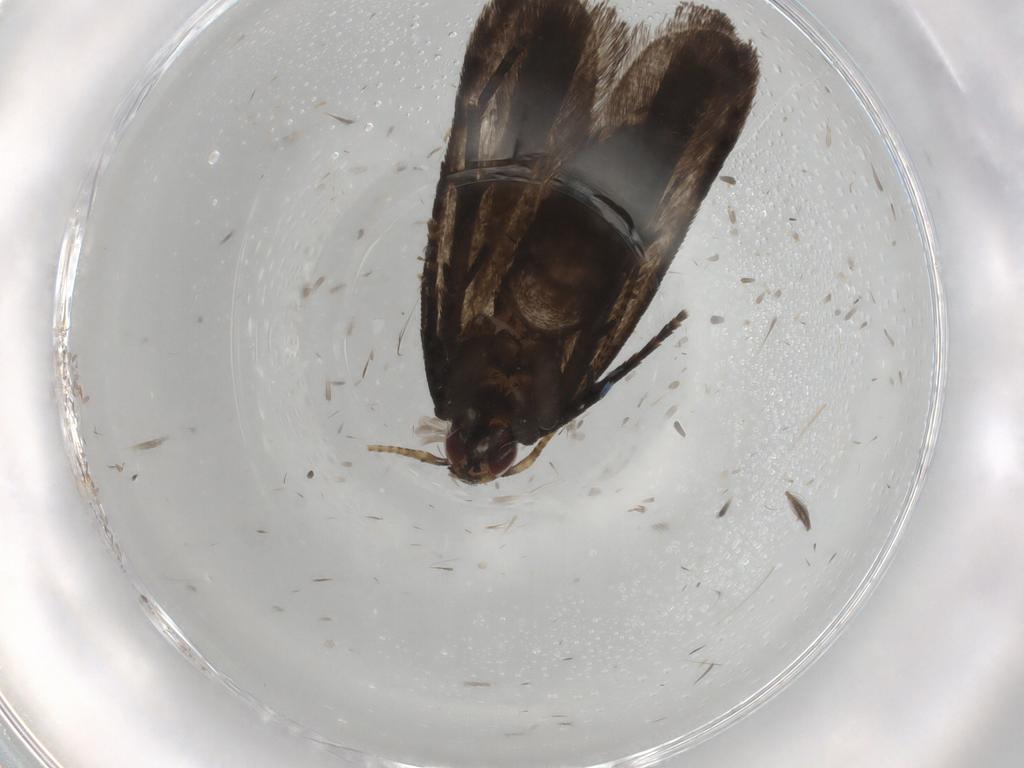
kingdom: Animalia
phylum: Arthropoda
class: Insecta
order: Lepidoptera
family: Gelechiidae
